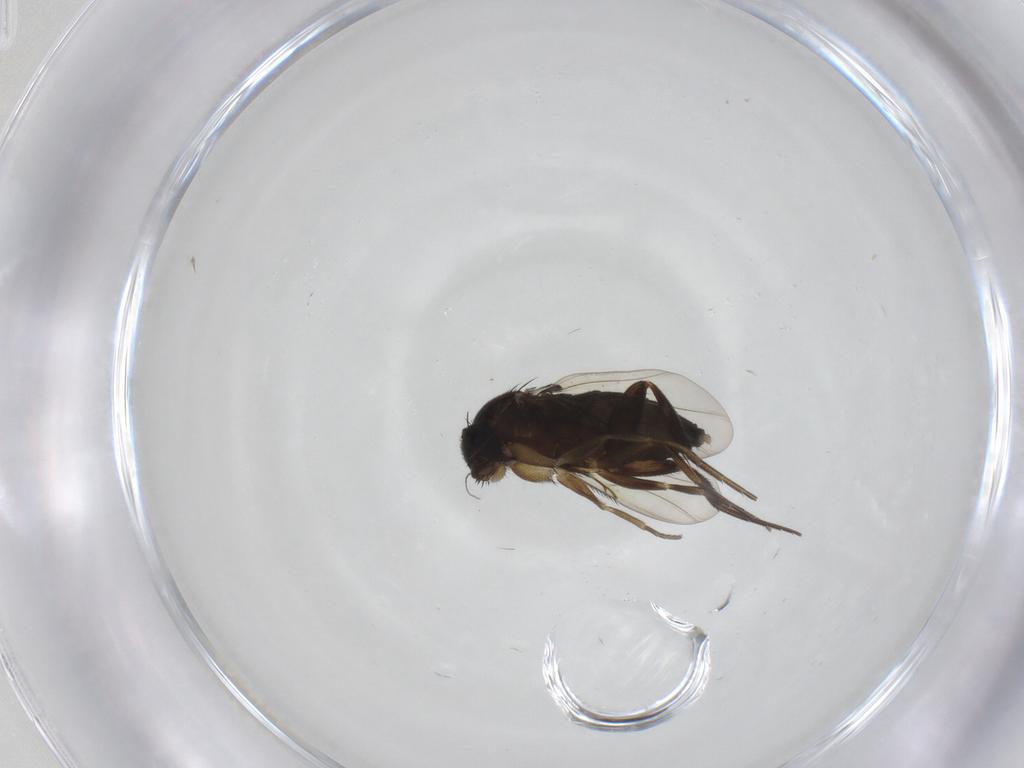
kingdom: Animalia
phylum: Arthropoda
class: Insecta
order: Diptera
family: Phoridae
